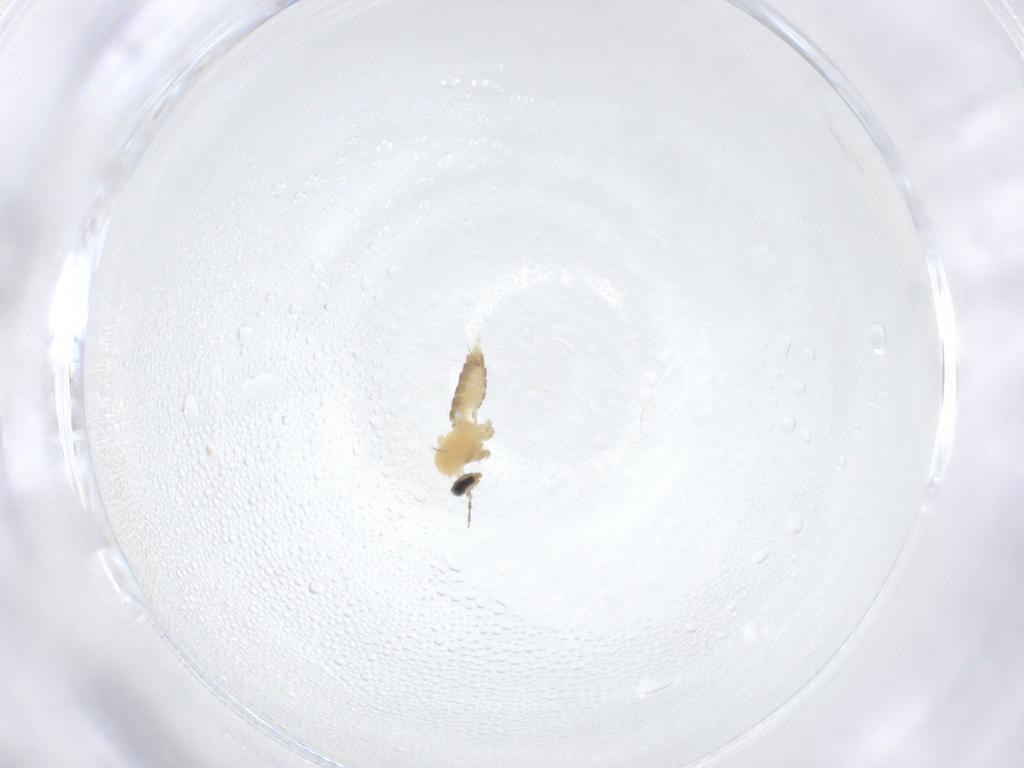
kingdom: Animalia
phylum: Arthropoda
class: Insecta
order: Diptera
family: Cecidomyiidae
